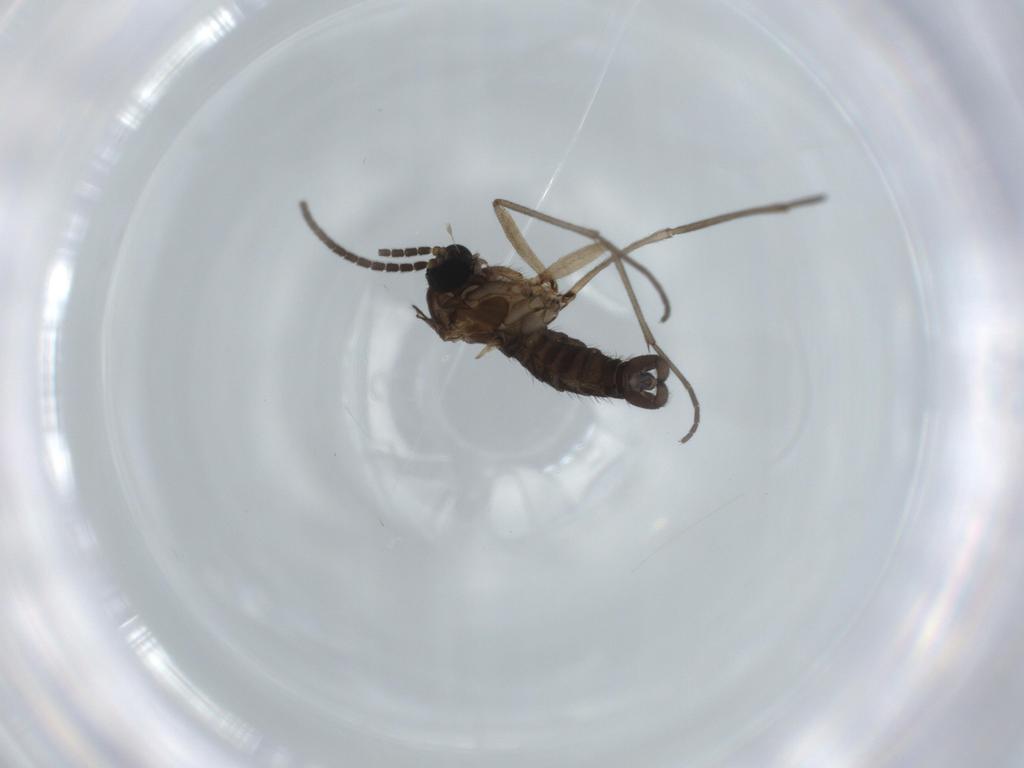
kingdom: Animalia
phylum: Arthropoda
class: Insecta
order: Diptera
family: Sciaridae
